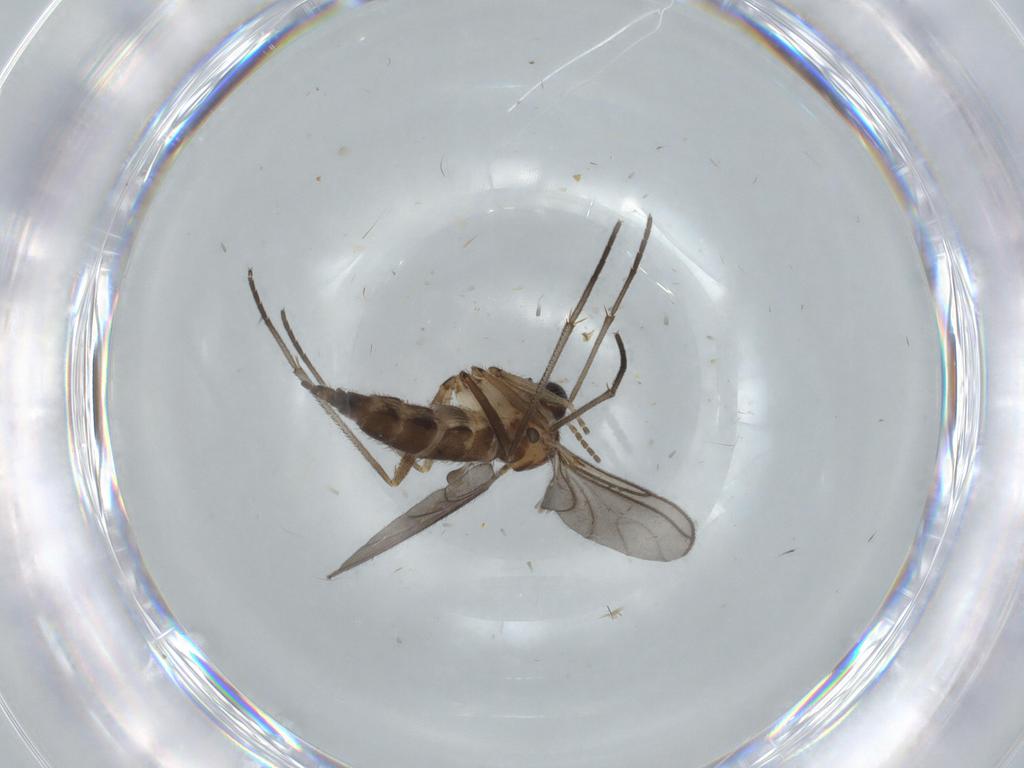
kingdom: Animalia
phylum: Arthropoda
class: Insecta
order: Diptera
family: Sciaridae
